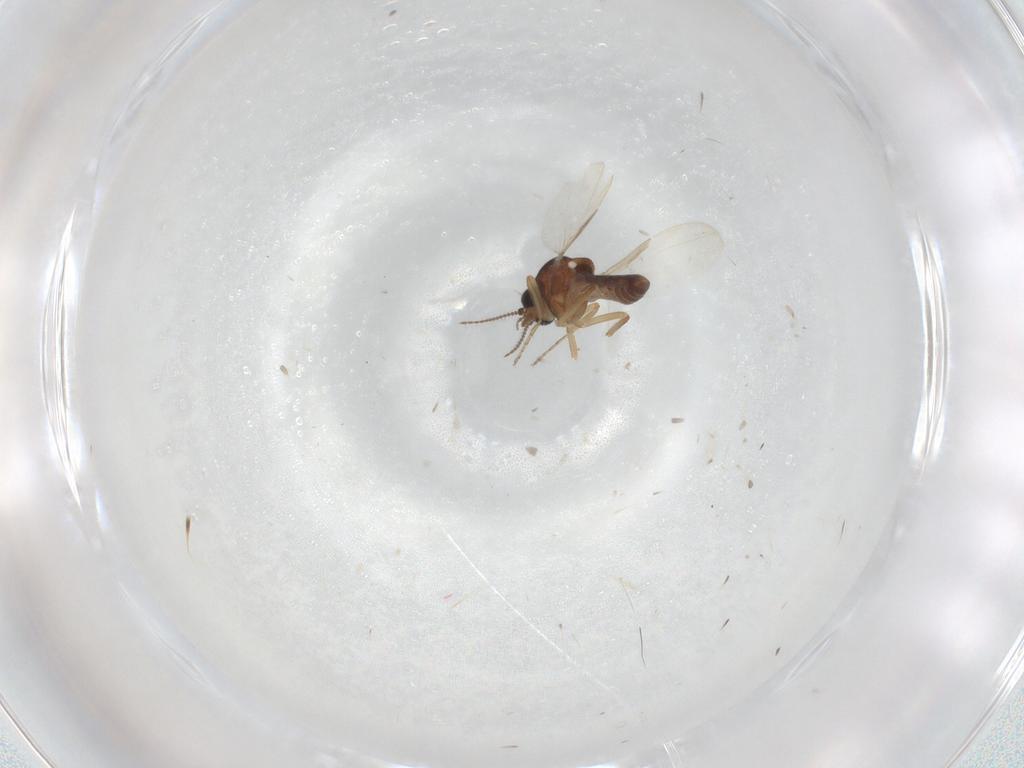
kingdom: Animalia
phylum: Arthropoda
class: Insecta
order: Diptera
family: Ceratopogonidae
